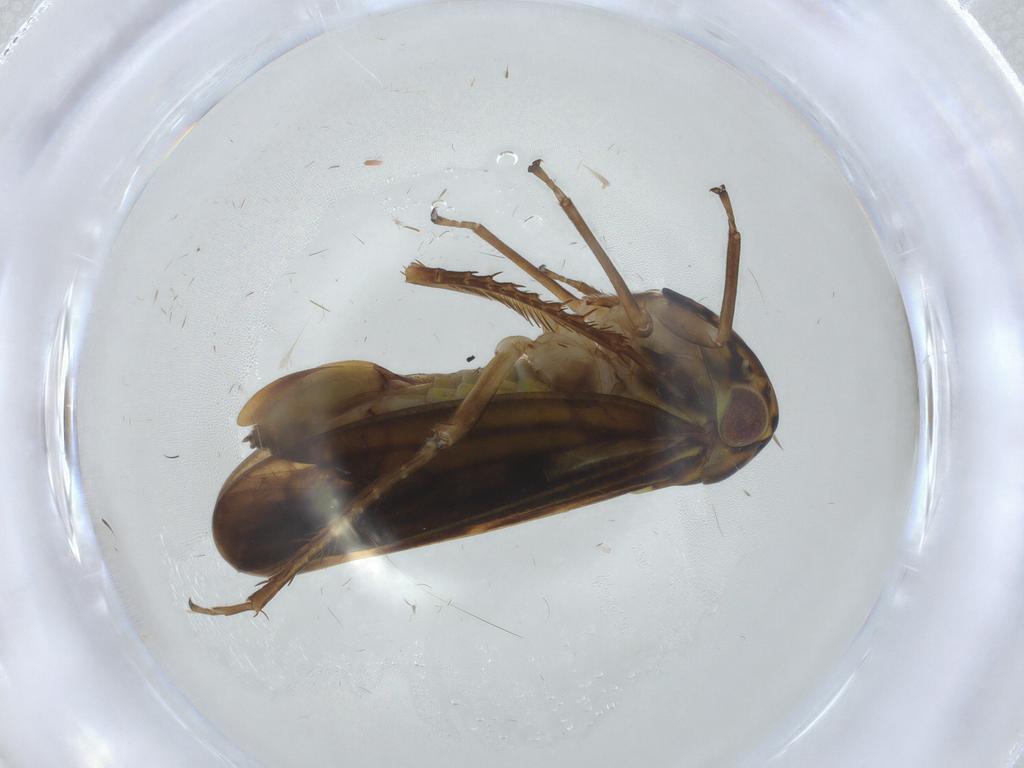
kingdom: Animalia
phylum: Arthropoda
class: Insecta
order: Hemiptera
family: Cicadellidae
